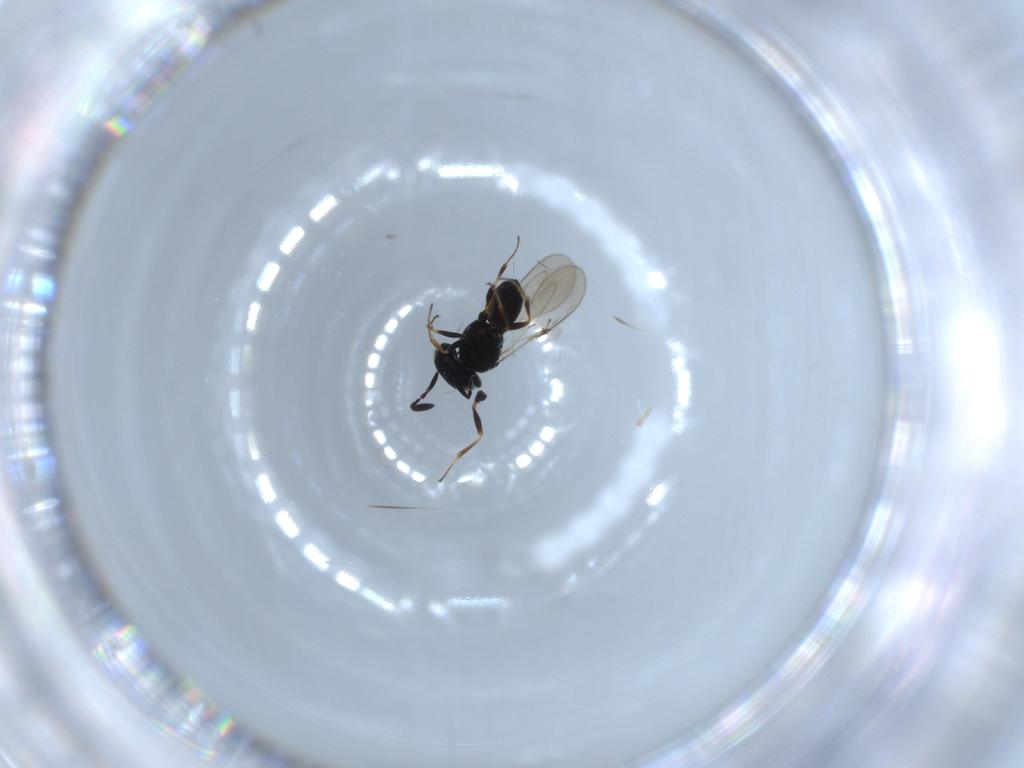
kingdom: Animalia
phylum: Arthropoda
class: Insecta
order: Hymenoptera
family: Scelionidae
